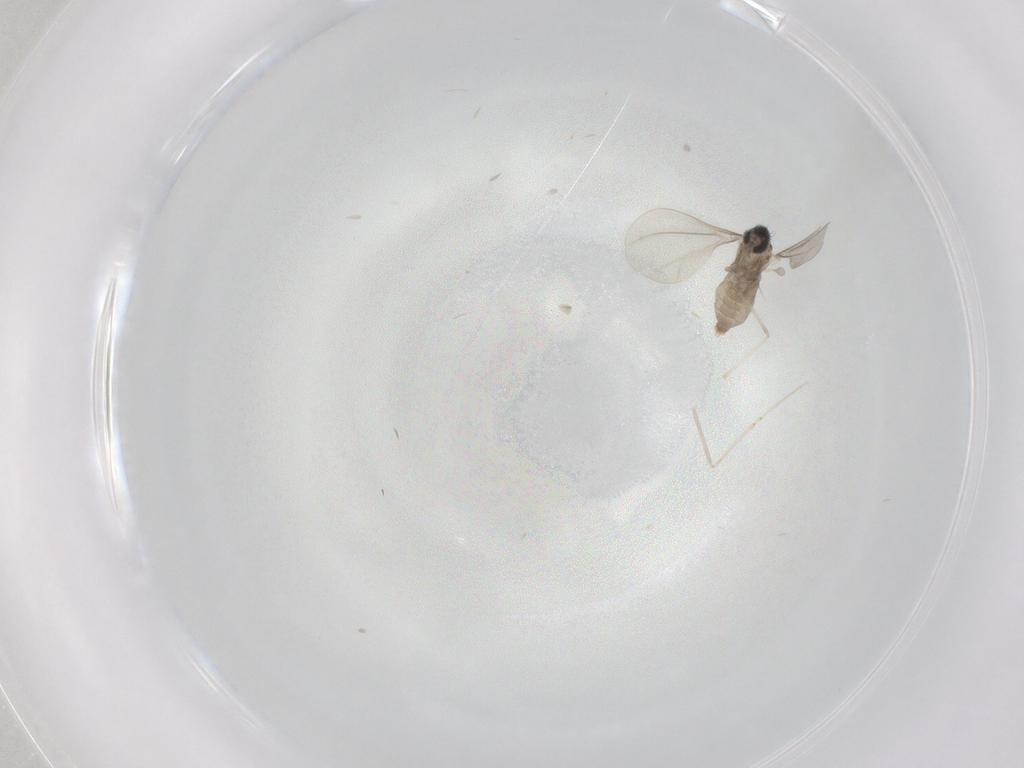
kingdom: Animalia
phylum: Arthropoda
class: Insecta
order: Diptera
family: Cecidomyiidae
